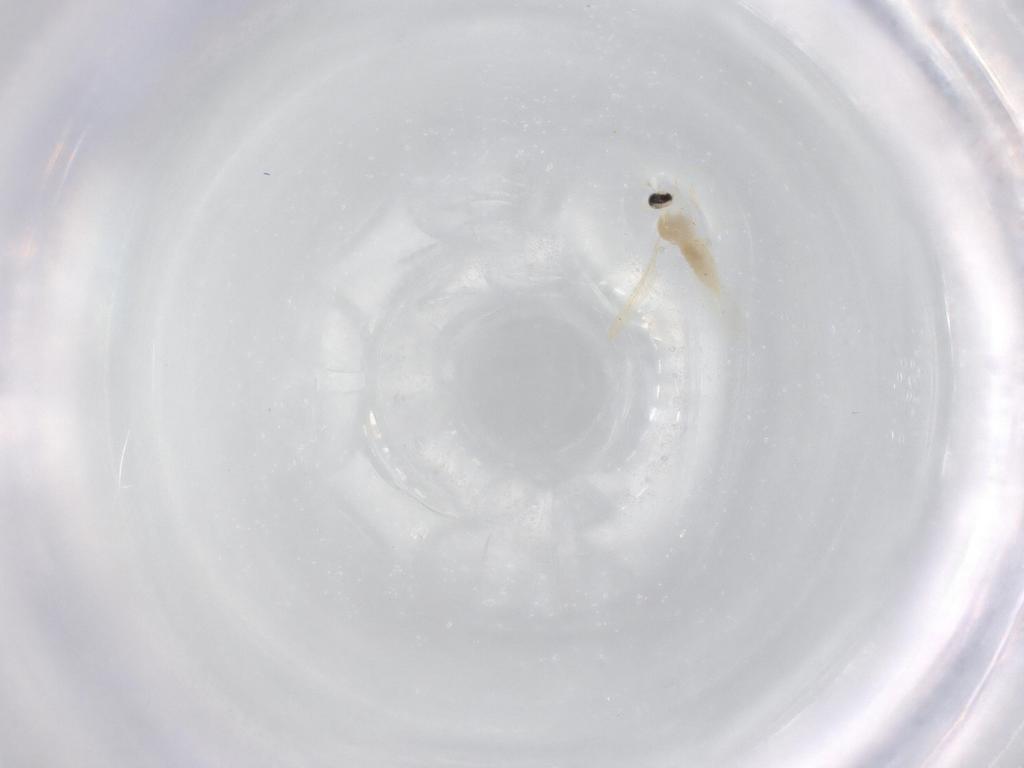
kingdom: Animalia
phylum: Arthropoda
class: Insecta
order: Diptera
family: Cecidomyiidae
